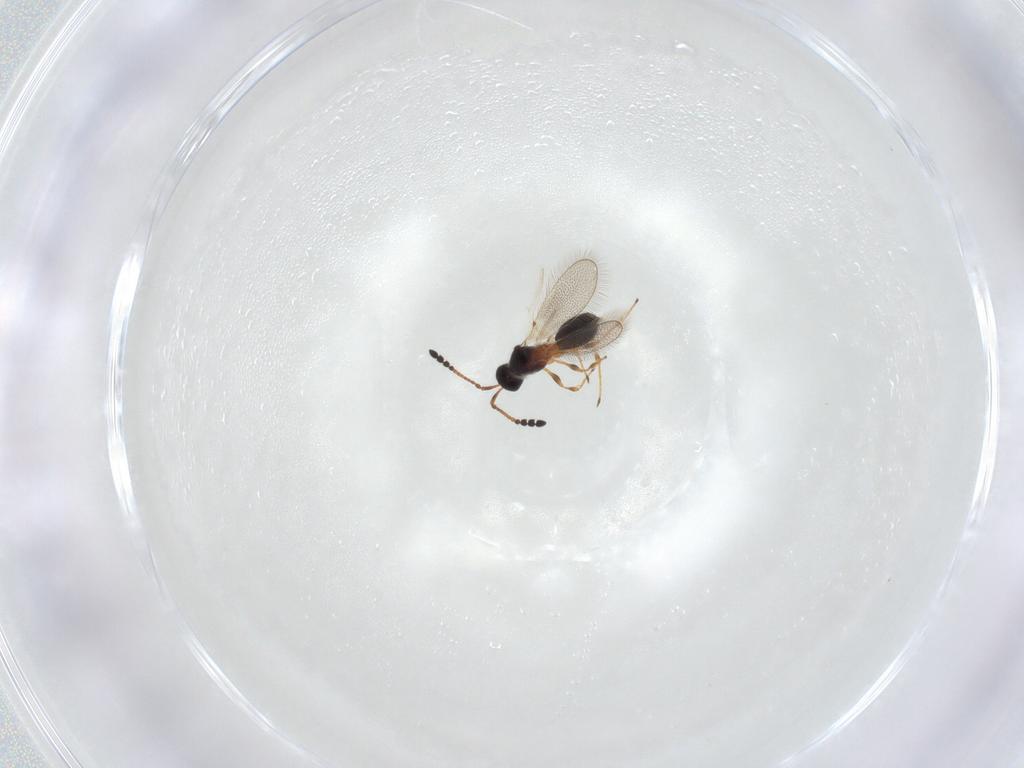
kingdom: Animalia
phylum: Arthropoda
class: Insecta
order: Hymenoptera
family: Diapriidae
